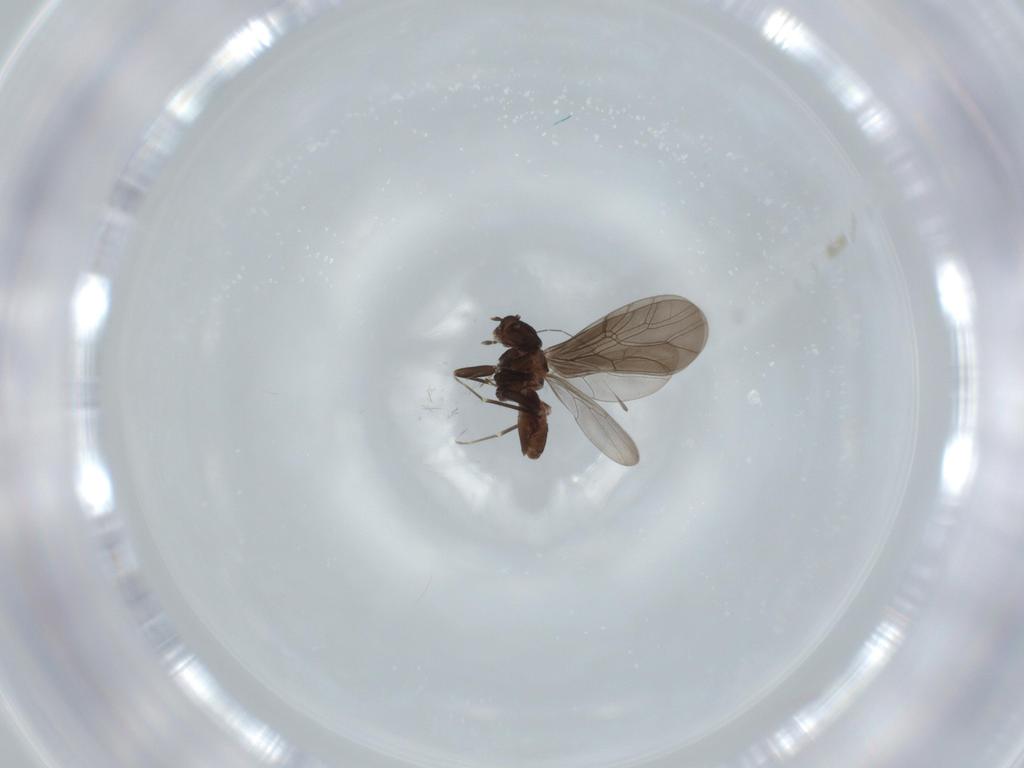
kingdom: Animalia
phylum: Arthropoda
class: Insecta
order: Psocodea
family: Lepidopsocidae
